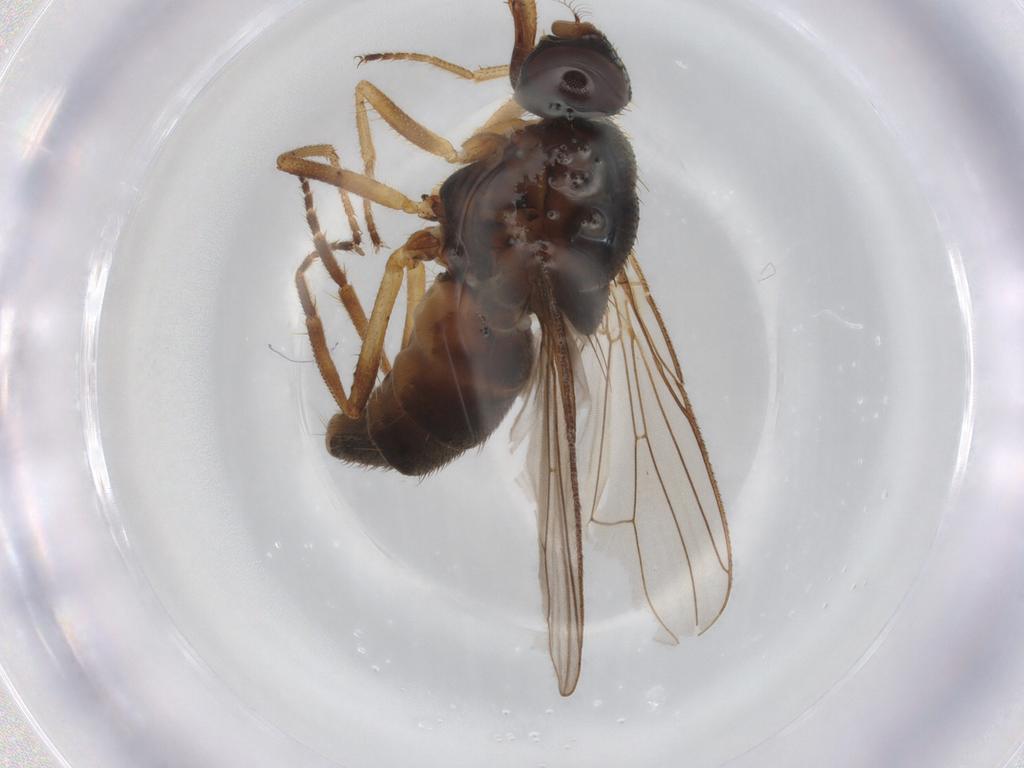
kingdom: Animalia
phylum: Arthropoda
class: Insecta
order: Diptera
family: Muscidae
